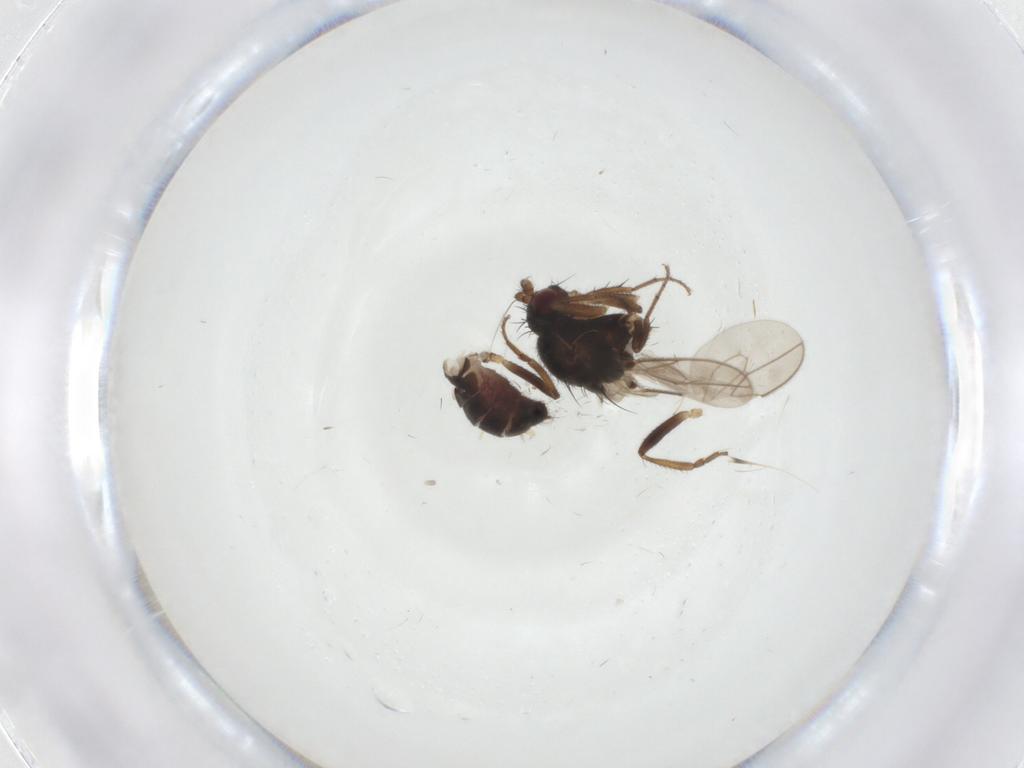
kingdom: Animalia
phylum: Arthropoda
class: Insecta
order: Diptera
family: Sphaeroceridae
